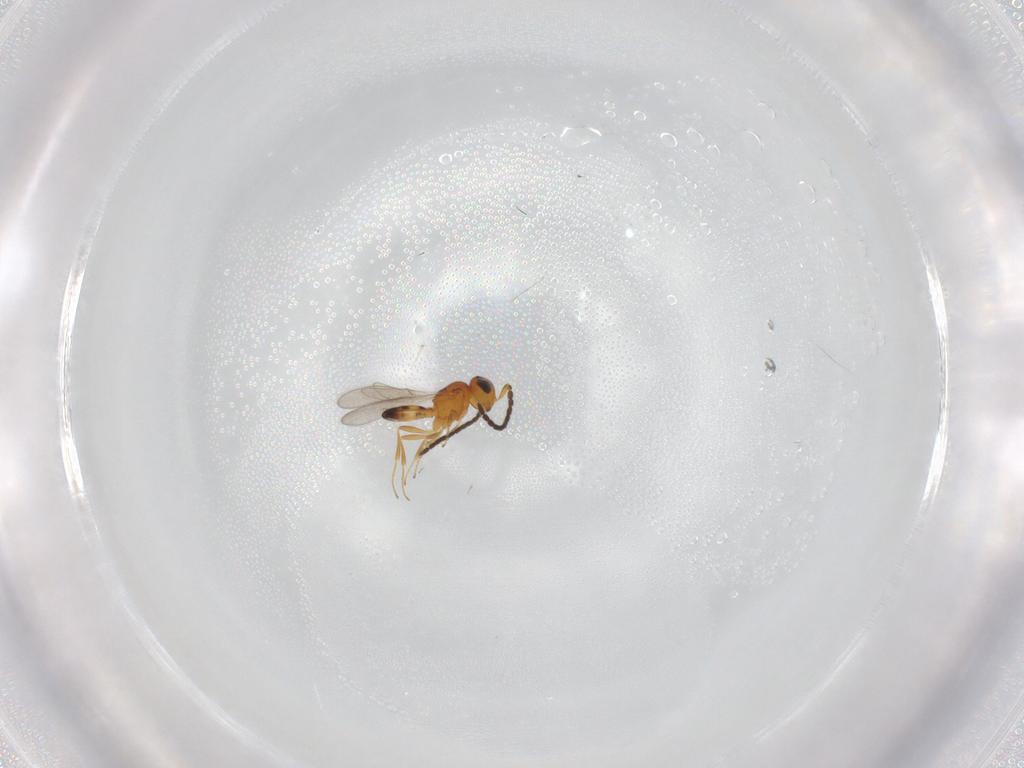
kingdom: Animalia
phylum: Arthropoda
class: Insecta
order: Hymenoptera
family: Scelionidae
